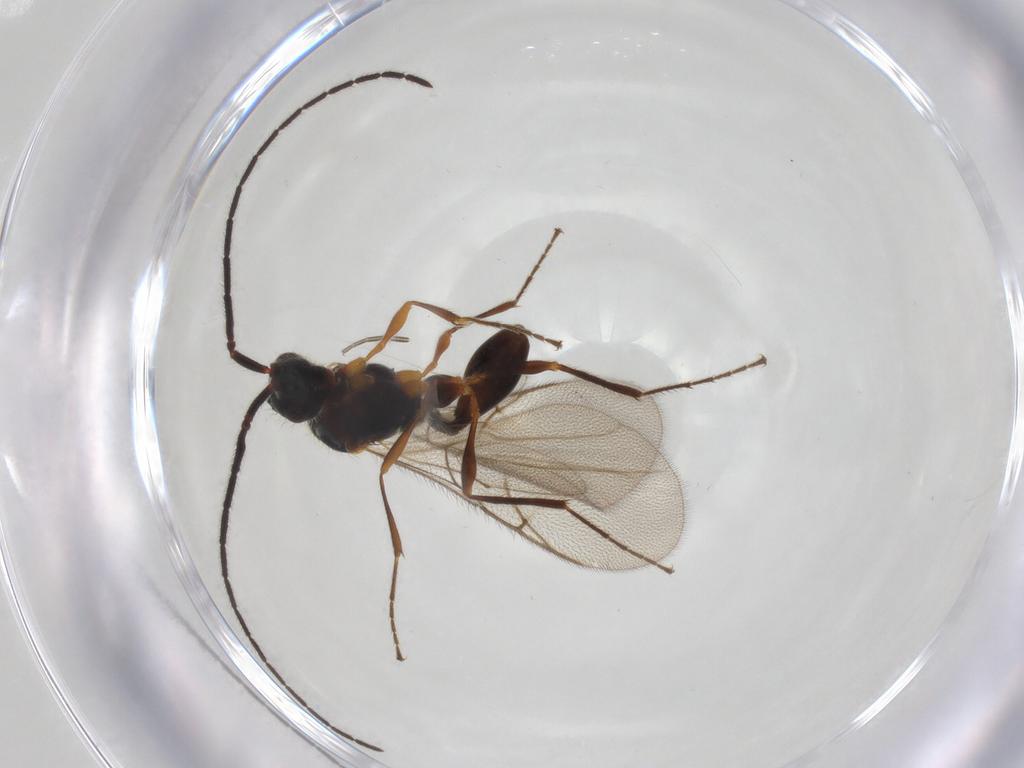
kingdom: Animalia
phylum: Arthropoda
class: Insecta
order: Hymenoptera
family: Diapriidae
